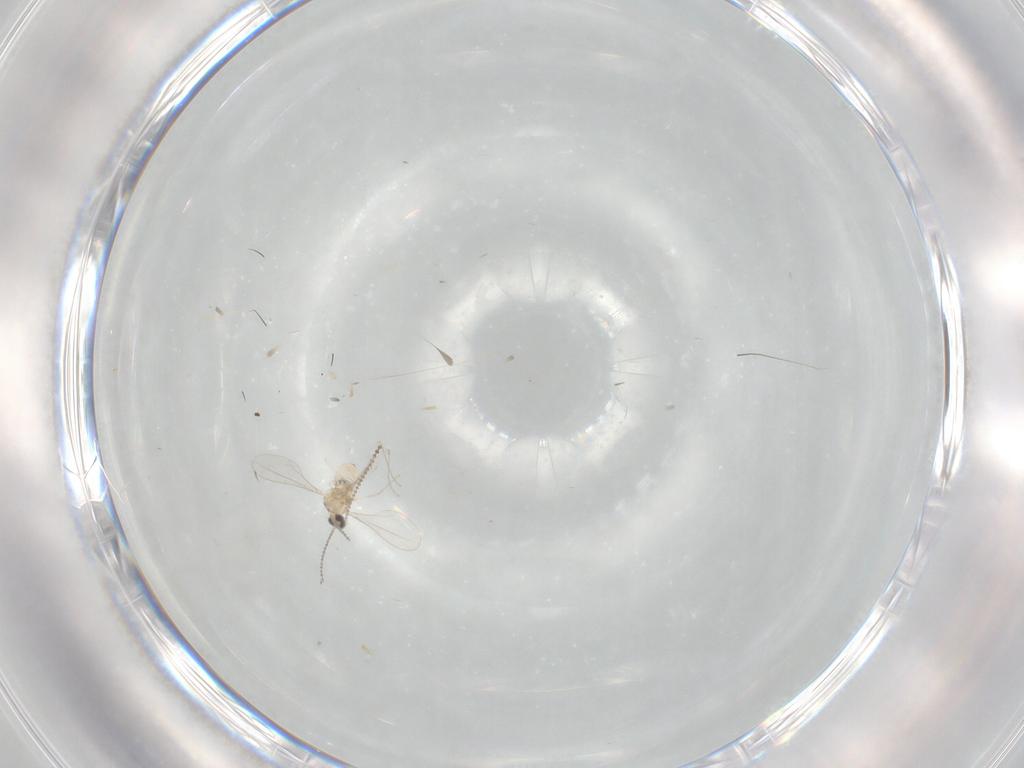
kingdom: Animalia
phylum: Arthropoda
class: Insecta
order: Diptera
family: Cecidomyiidae
